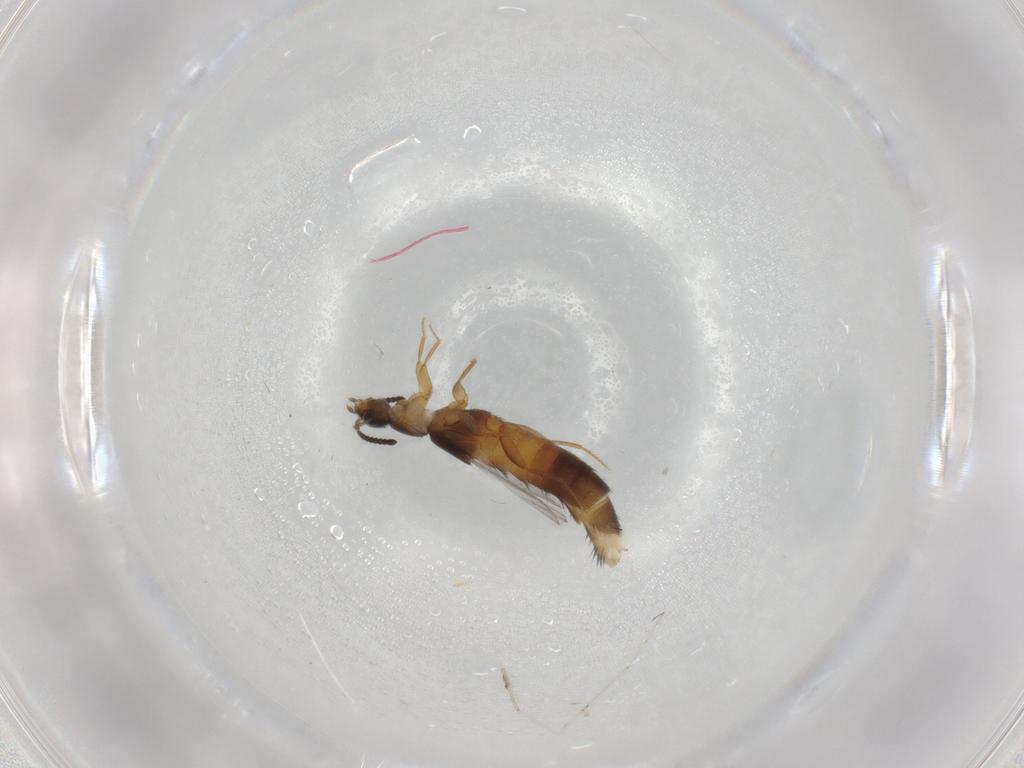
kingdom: Animalia
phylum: Arthropoda
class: Insecta
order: Coleoptera
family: Staphylinidae
